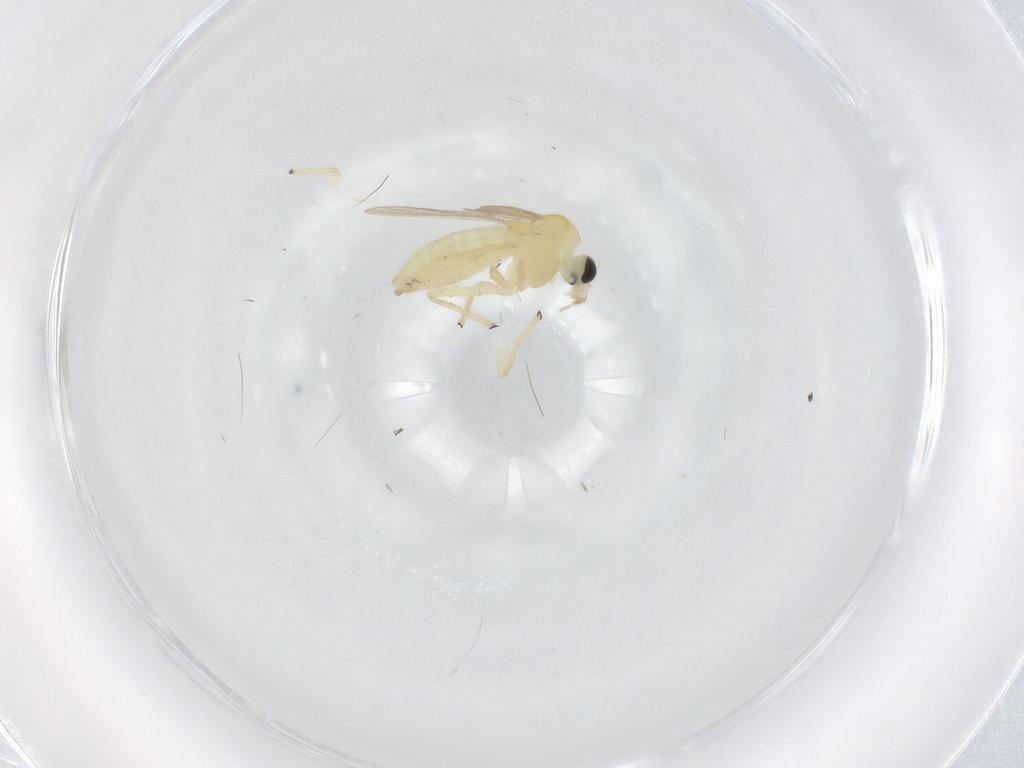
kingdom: Animalia
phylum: Arthropoda
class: Insecta
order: Diptera
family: Chironomidae
